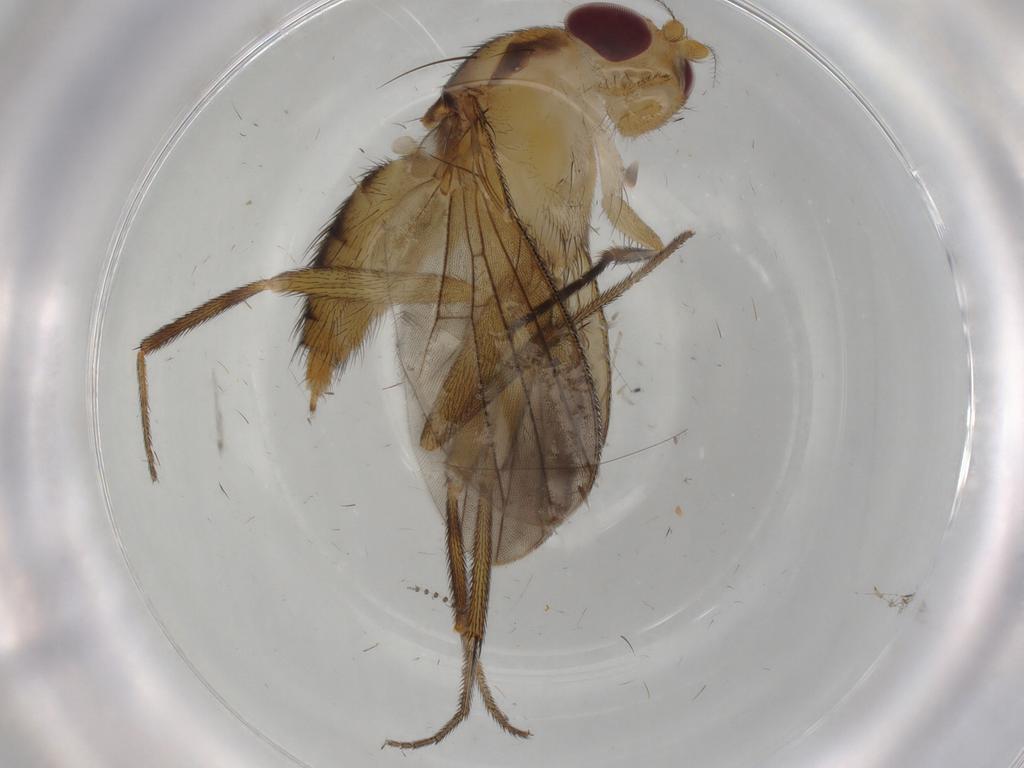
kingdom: Animalia
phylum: Arthropoda
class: Insecta
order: Diptera
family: Cecidomyiidae
